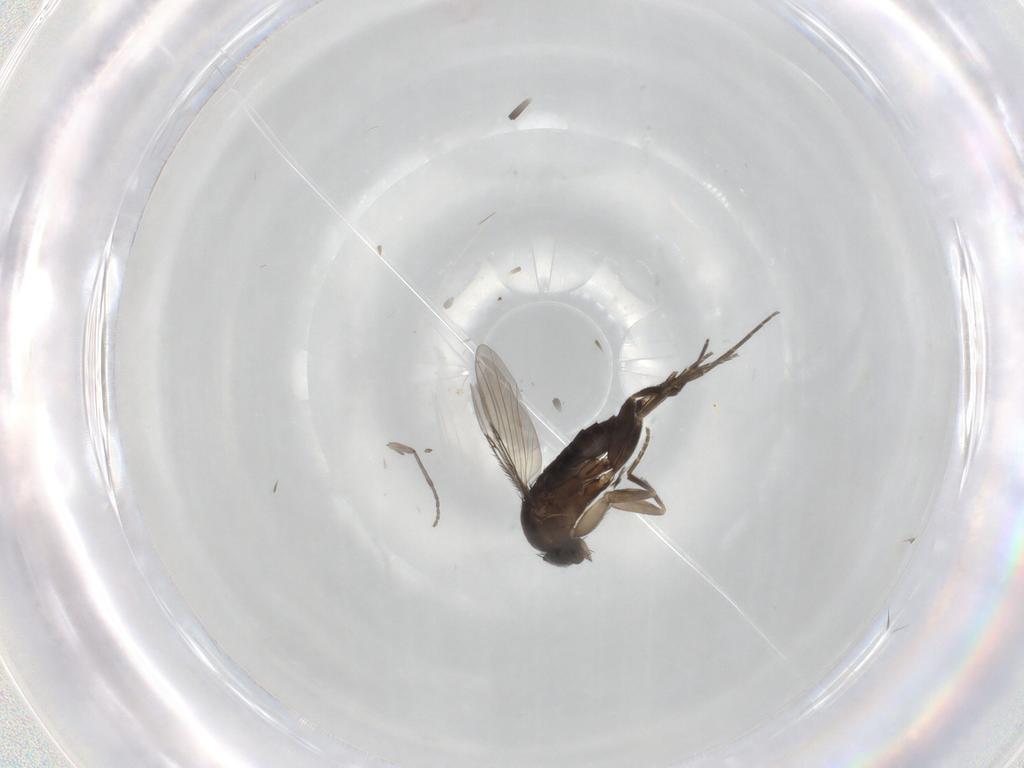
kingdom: Animalia
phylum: Arthropoda
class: Insecta
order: Diptera
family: Phoridae
